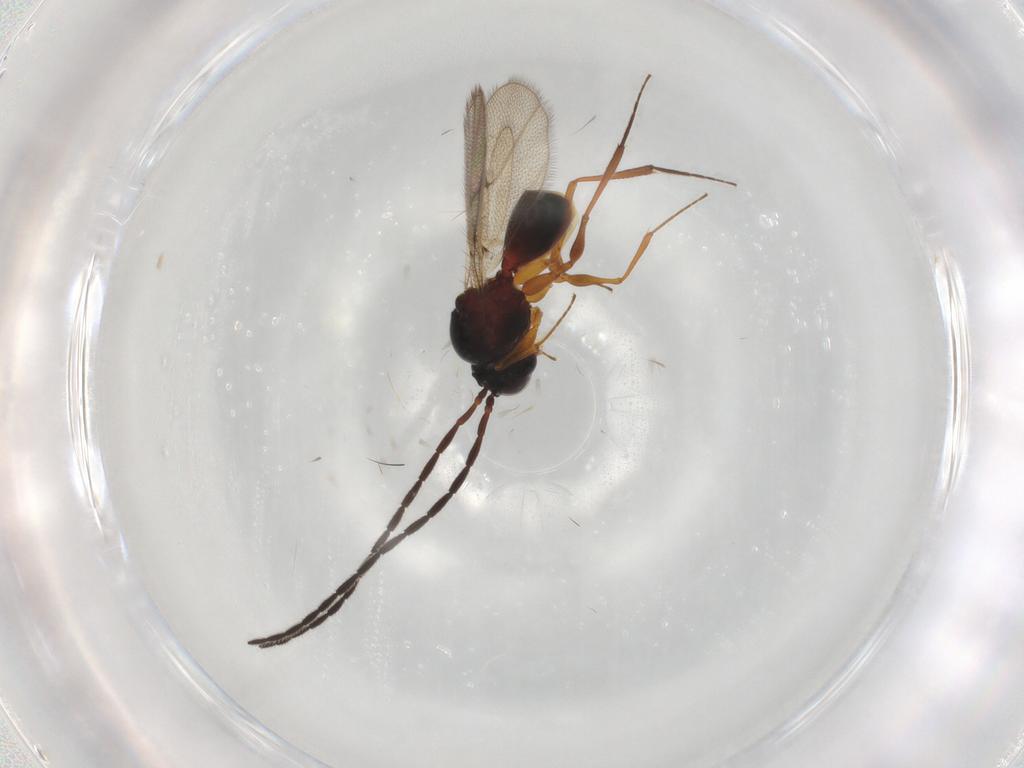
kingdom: Animalia
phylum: Arthropoda
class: Insecta
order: Hymenoptera
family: Figitidae
